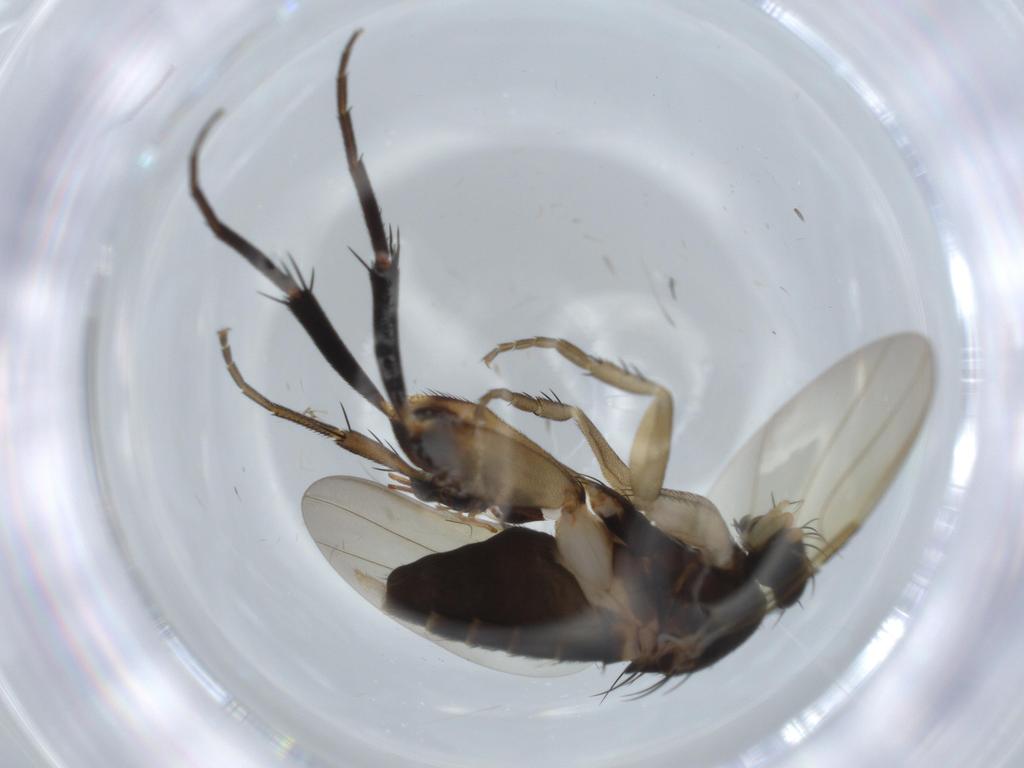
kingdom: Animalia
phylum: Arthropoda
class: Insecta
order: Diptera
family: Phoridae
